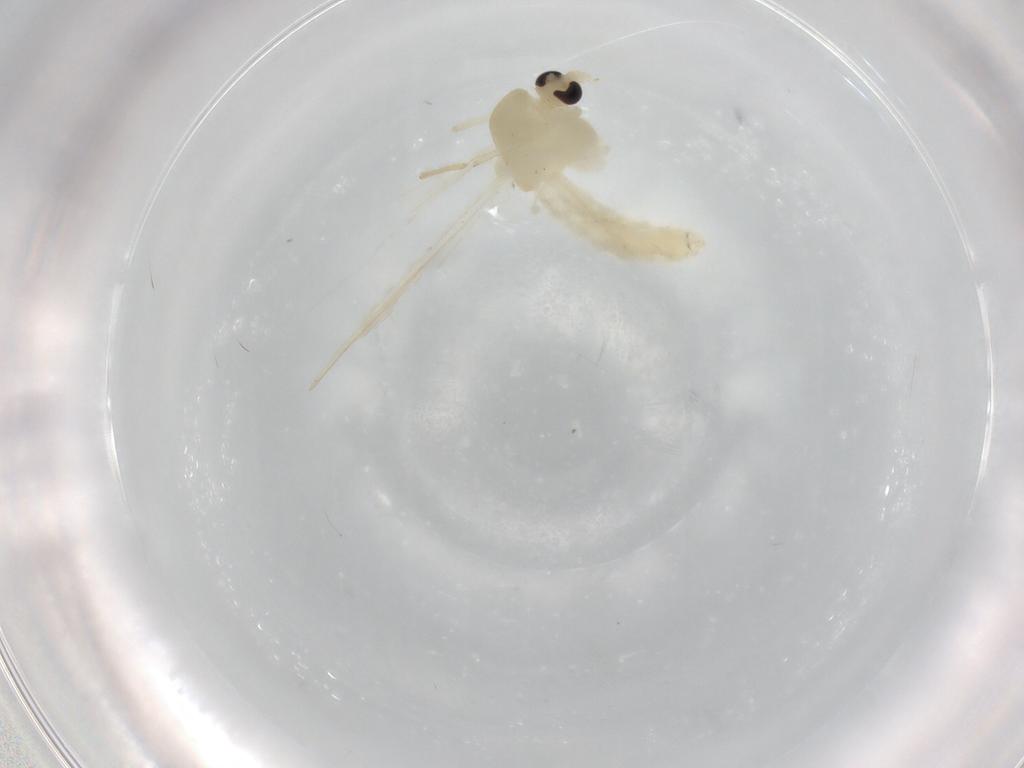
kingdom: Animalia
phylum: Arthropoda
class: Insecta
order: Diptera
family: Chironomidae
